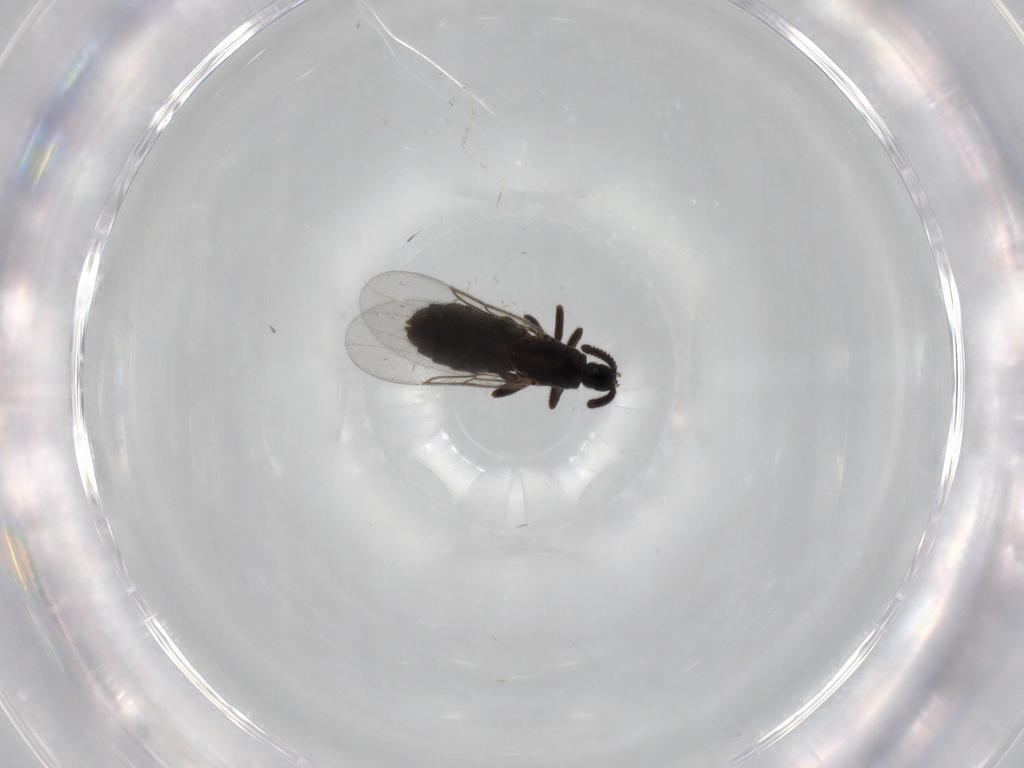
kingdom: Animalia
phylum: Arthropoda
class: Insecta
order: Diptera
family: Scatopsidae
